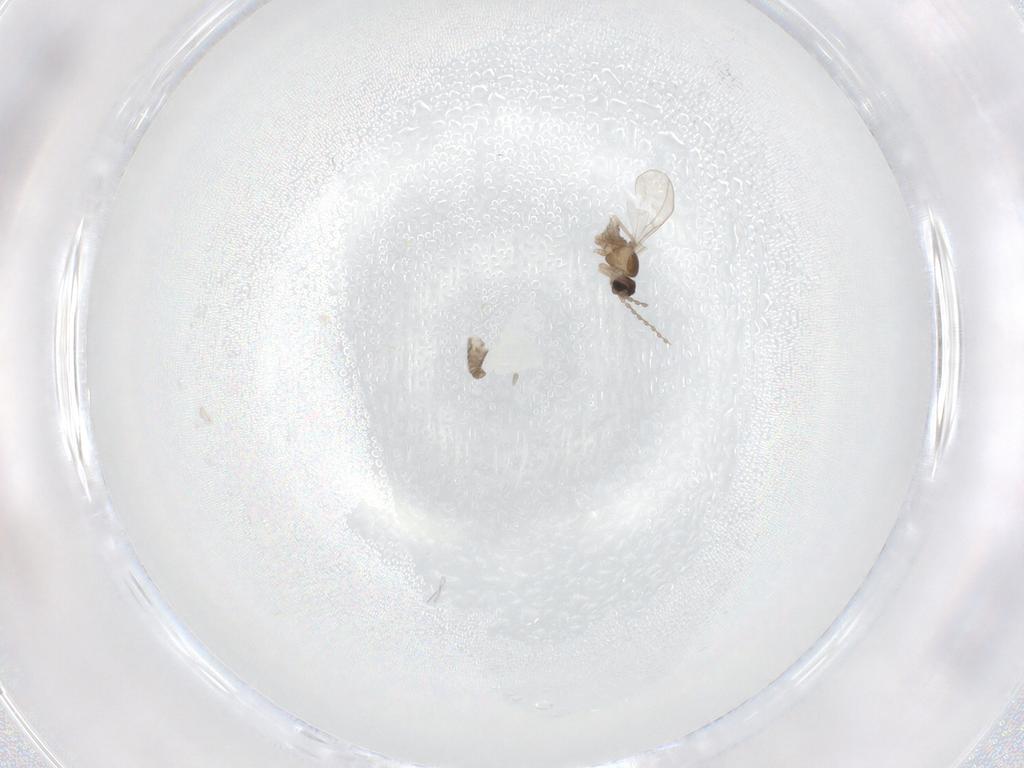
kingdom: Animalia
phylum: Arthropoda
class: Insecta
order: Diptera
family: Cecidomyiidae
